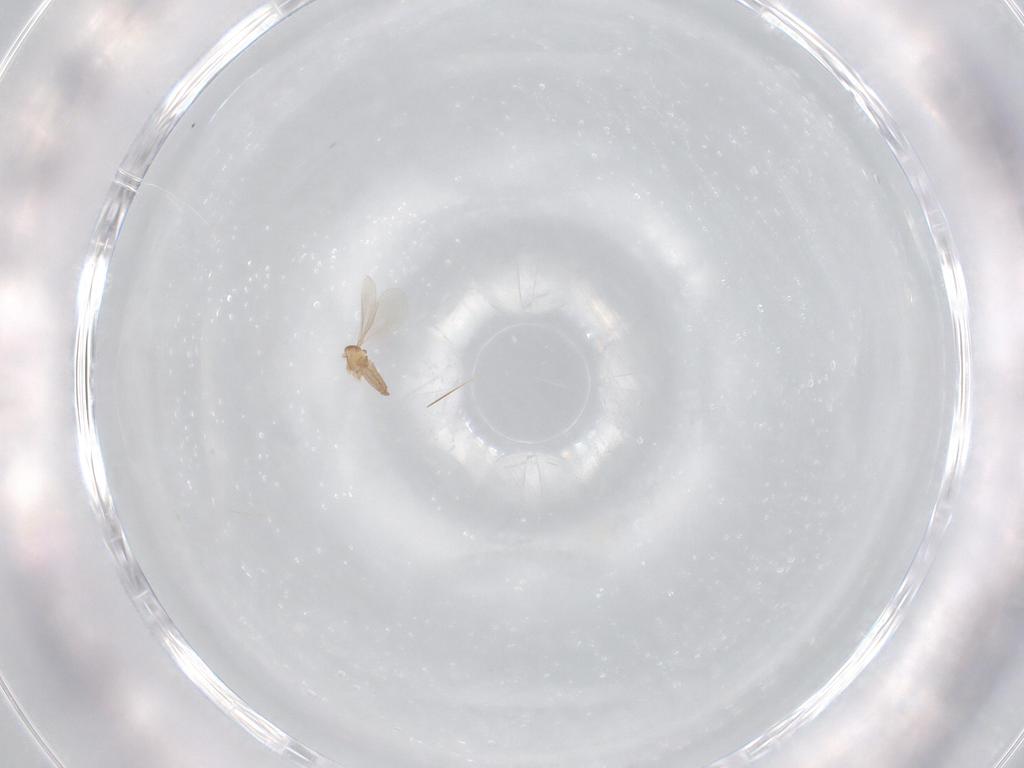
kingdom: Animalia
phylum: Arthropoda
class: Insecta
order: Diptera
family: Cecidomyiidae
